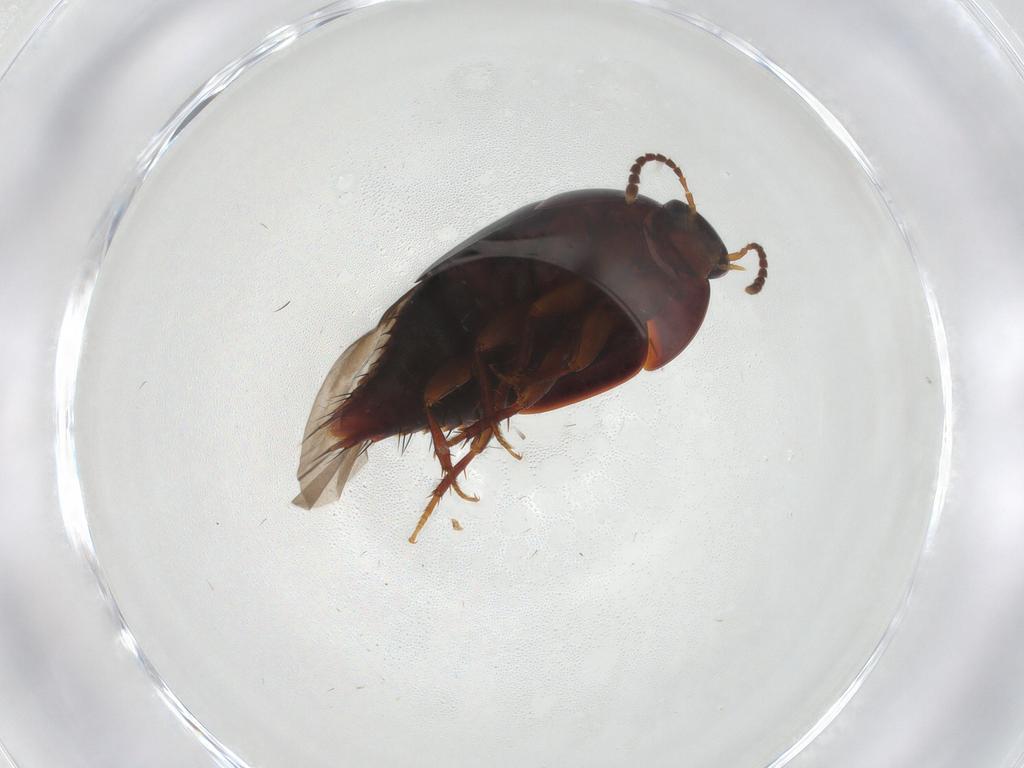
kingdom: Animalia
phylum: Arthropoda
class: Insecta
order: Coleoptera
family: Staphylinidae
